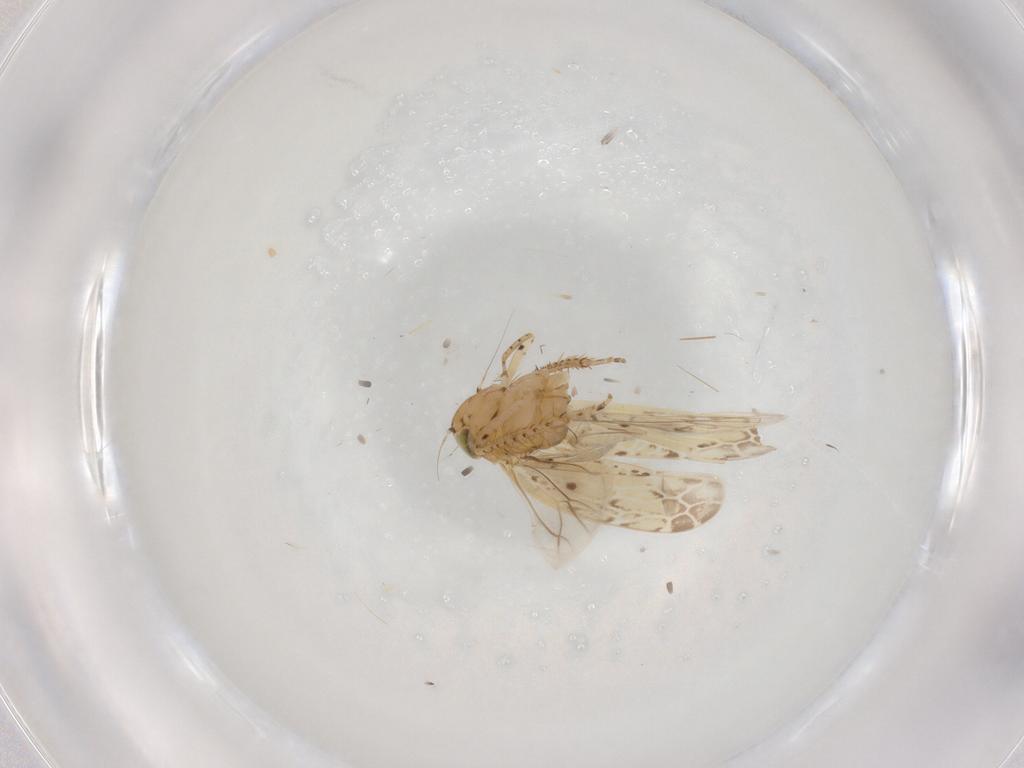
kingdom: Animalia
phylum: Arthropoda
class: Insecta
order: Hemiptera
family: Cicadellidae
